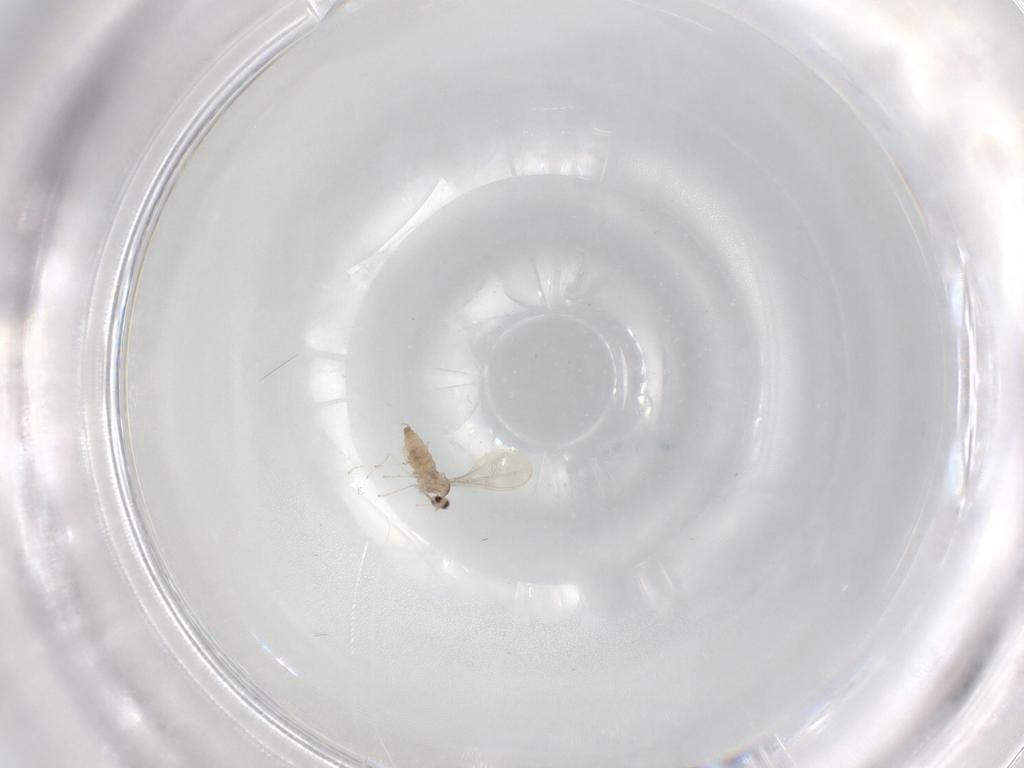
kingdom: Animalia
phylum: Arthropoda
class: Insecta
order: Diptera
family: Cecidomyiidae
